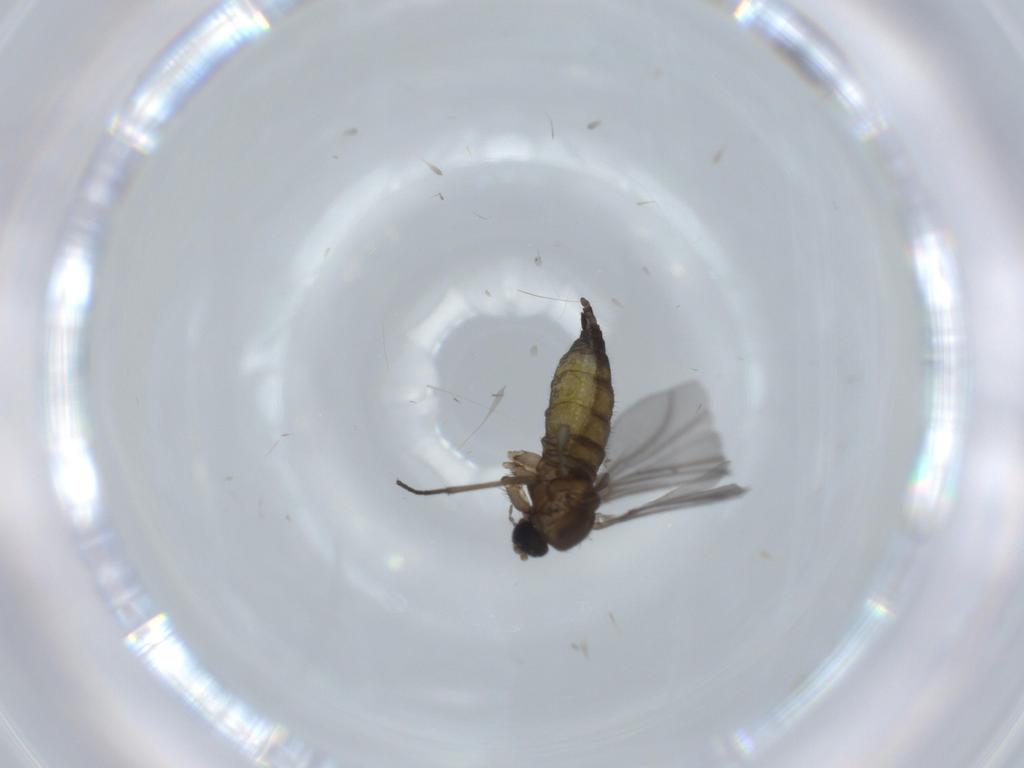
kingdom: Animalia
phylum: Arthropoda
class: Insecta
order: Diptera
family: Dolichopodidae
